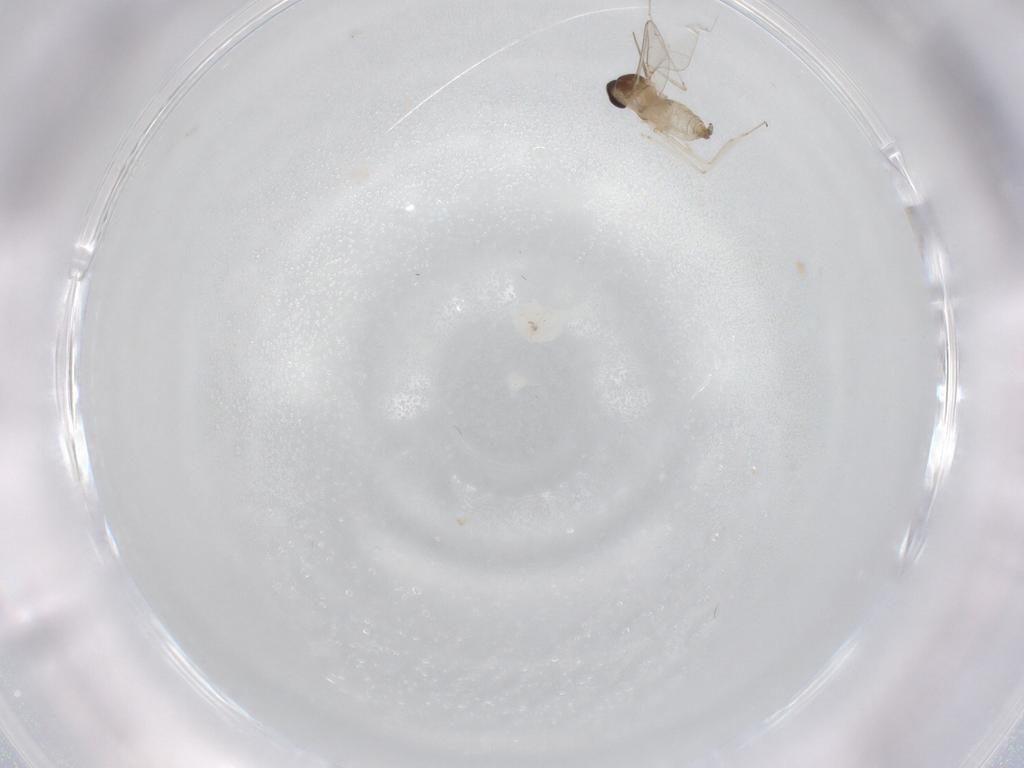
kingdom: Animalia
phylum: Arthropoda
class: Insecta
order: Diptera
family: Cecidomyiidae
